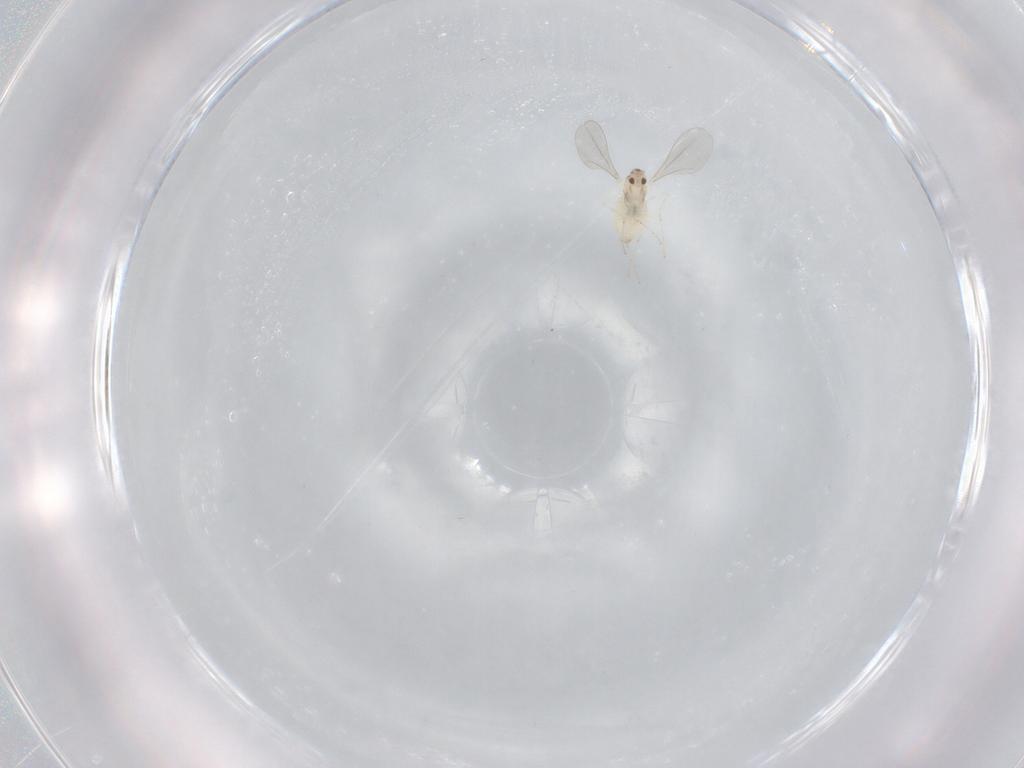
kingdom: Animalia
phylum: Arthropoda
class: Insecta
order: Diptera
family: Cecidomyiidae
